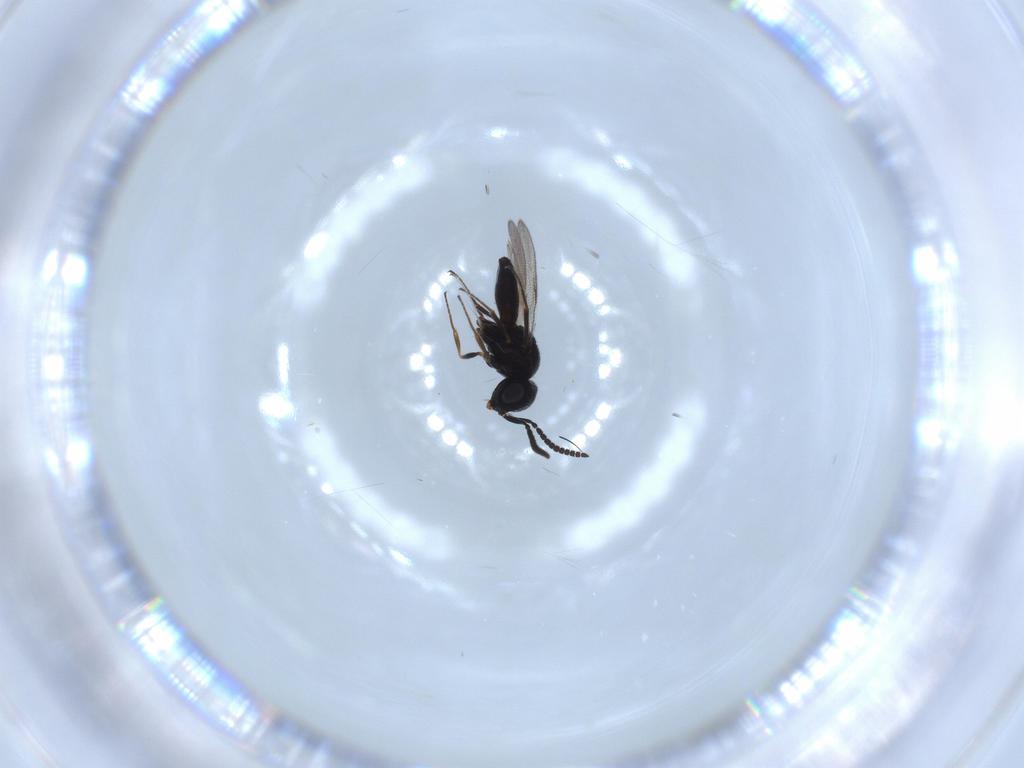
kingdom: Animalia
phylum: Arthropoda
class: Insecta
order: Hymenoptera
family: Scelionidae
